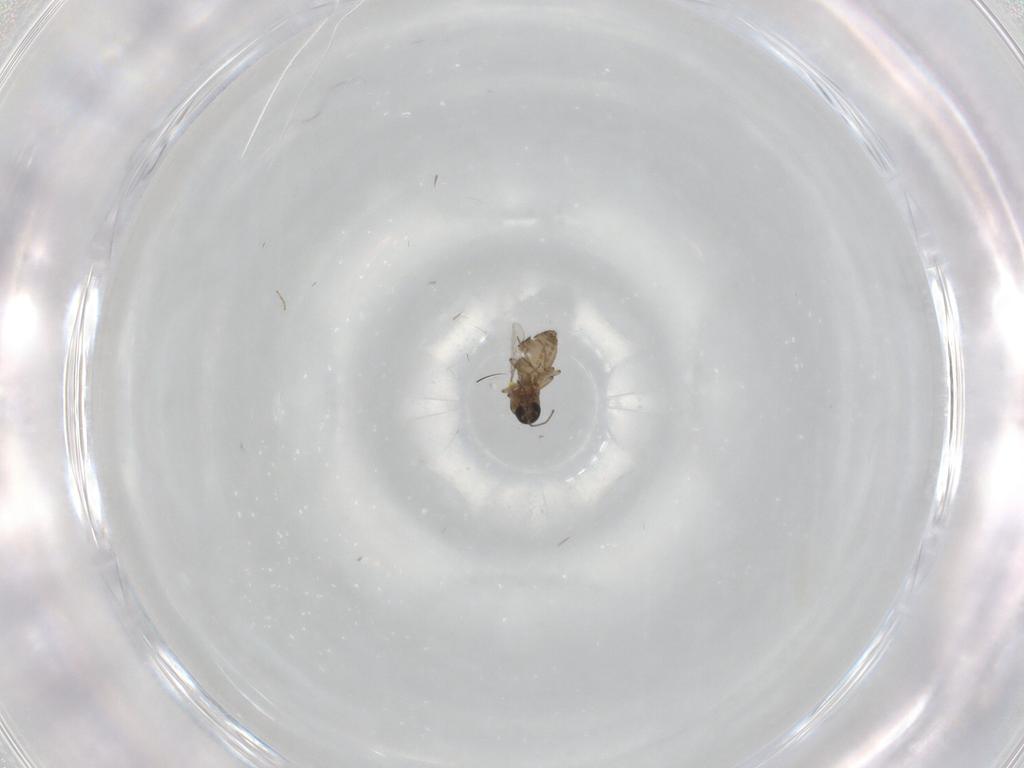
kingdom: Animalia
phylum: Arthropoda
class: Insecta
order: Diptera
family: Ceratopogonidae
